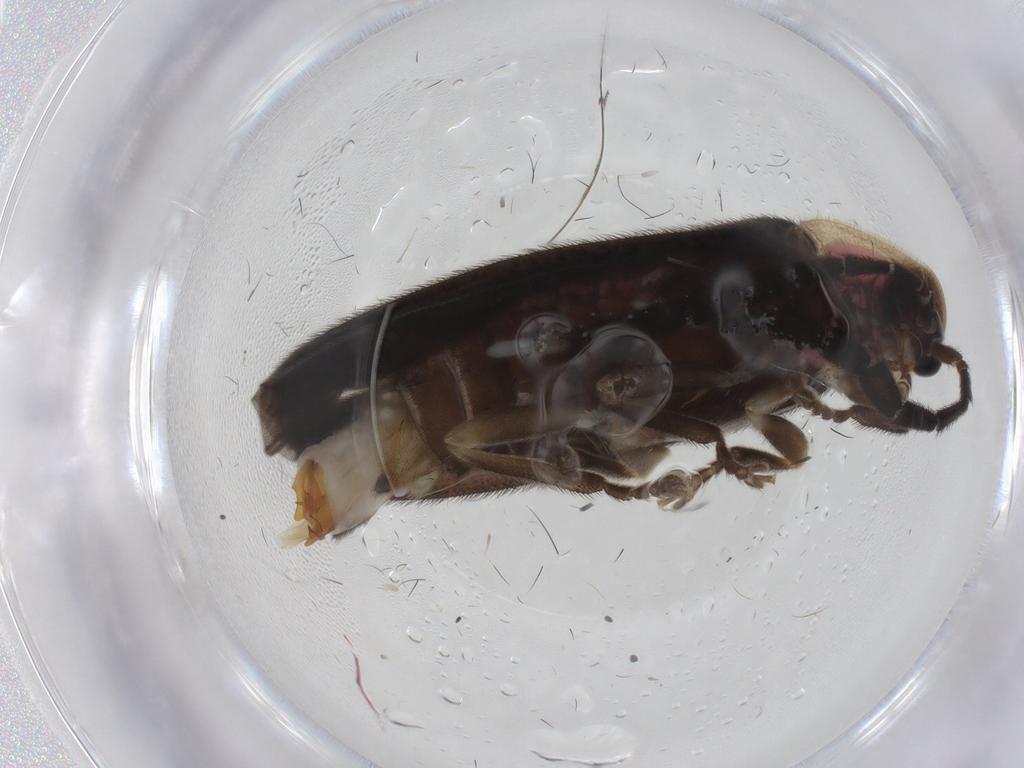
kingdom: Animalia
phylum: Arthropoda
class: Insecta
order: Coleoptera
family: Lampyridae
